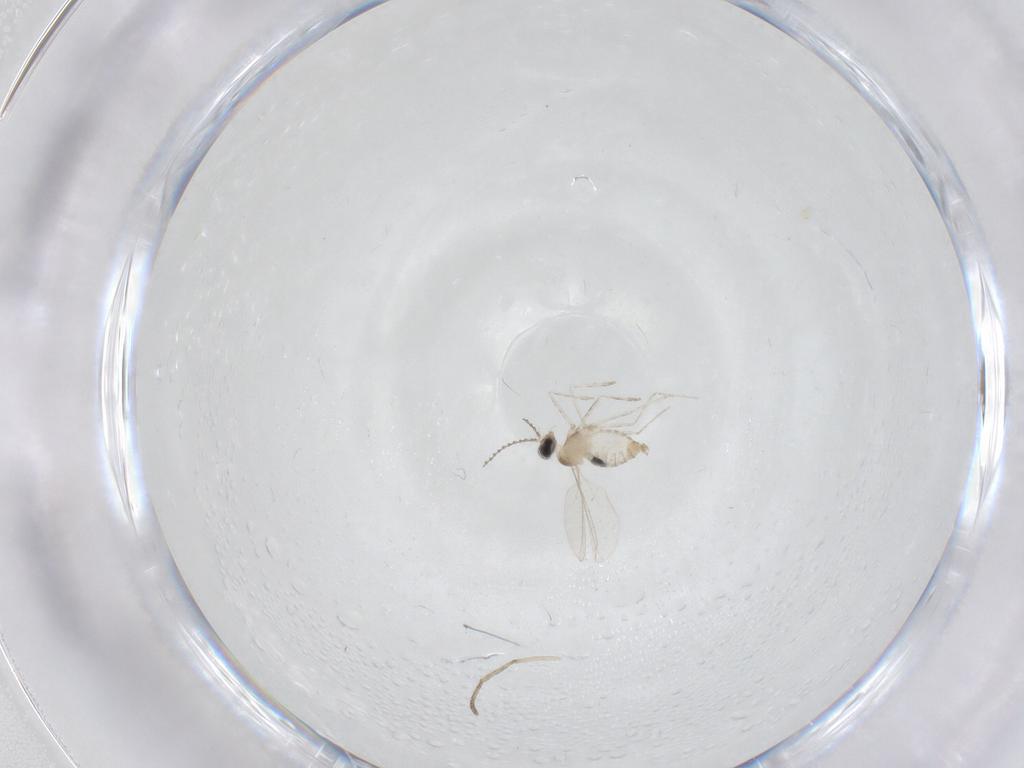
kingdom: Animalia
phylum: Arthropoda
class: Insecta
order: Diptera
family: Cecidomyiidae
